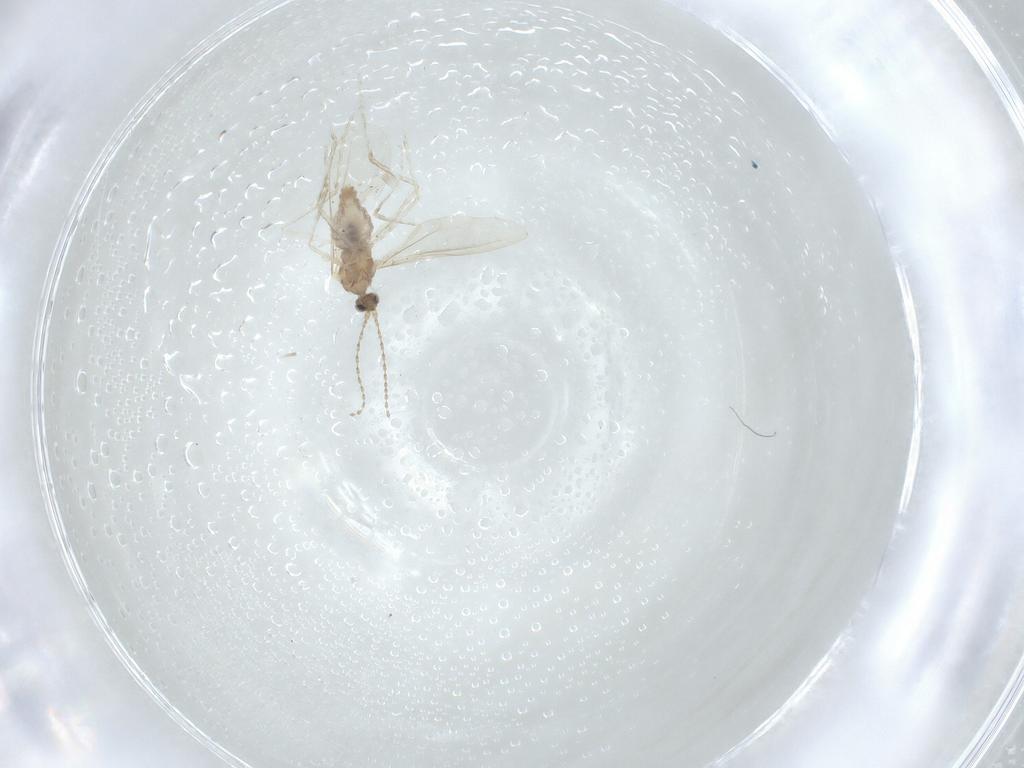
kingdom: Animalia
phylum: Arthropoda
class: Insecta
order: Diptera
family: Cecidomyiidae
